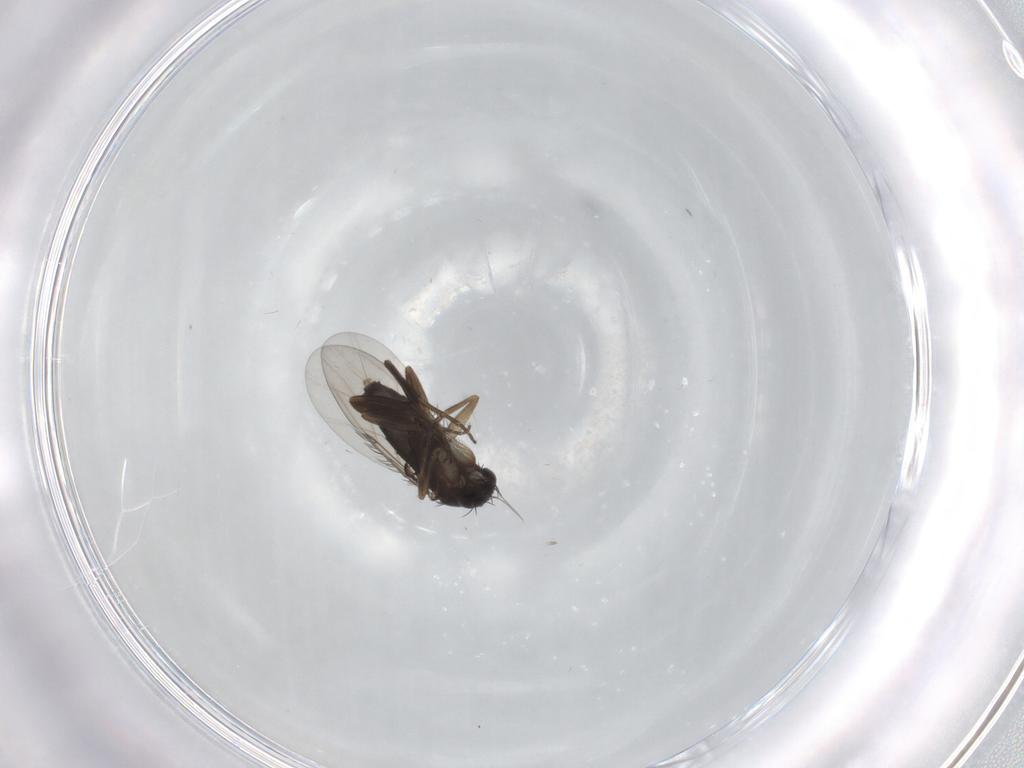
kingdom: Animalia
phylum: Arthropoda
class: Insecta
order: Diptera
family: Phoridae
